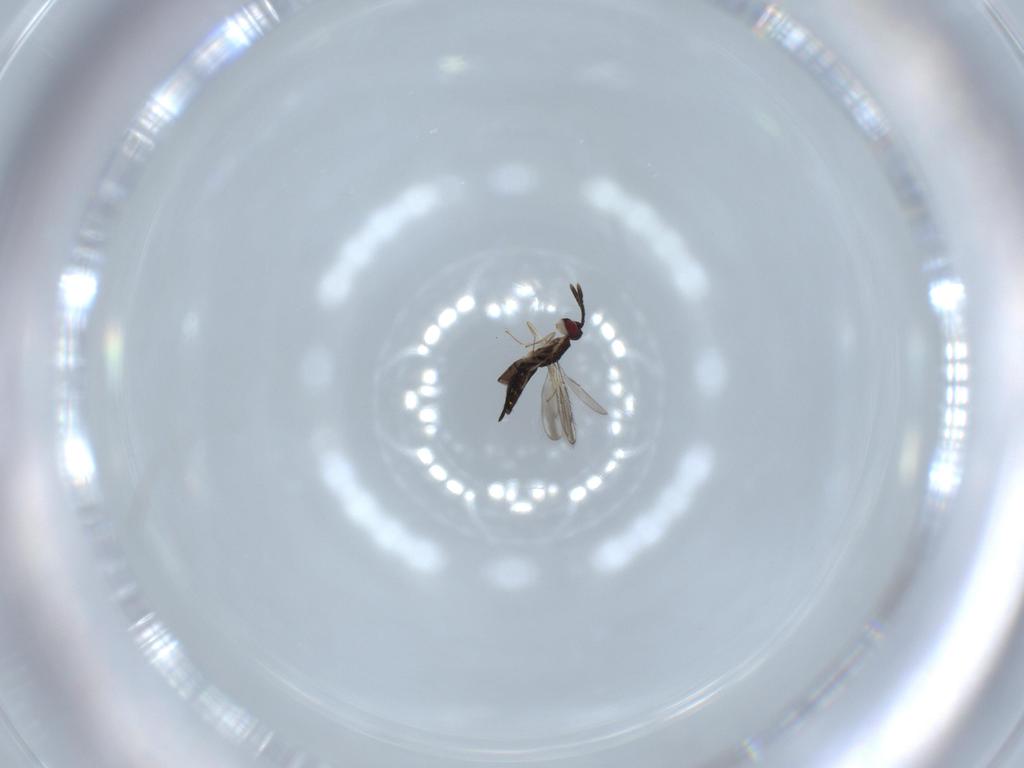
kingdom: Animalia
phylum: Arthropoda
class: Insecta
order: Hymenoptera
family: Pteromalidae
